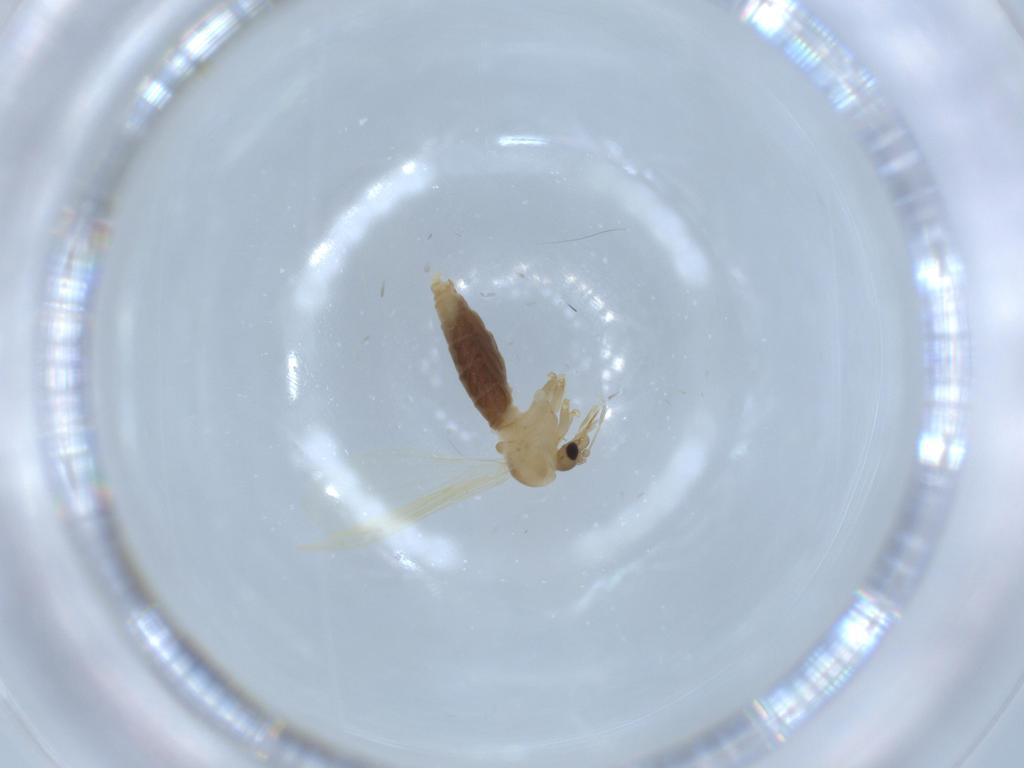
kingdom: Animalia
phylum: Arthropoda
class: Insecta
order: Diptera
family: Psychodidae
